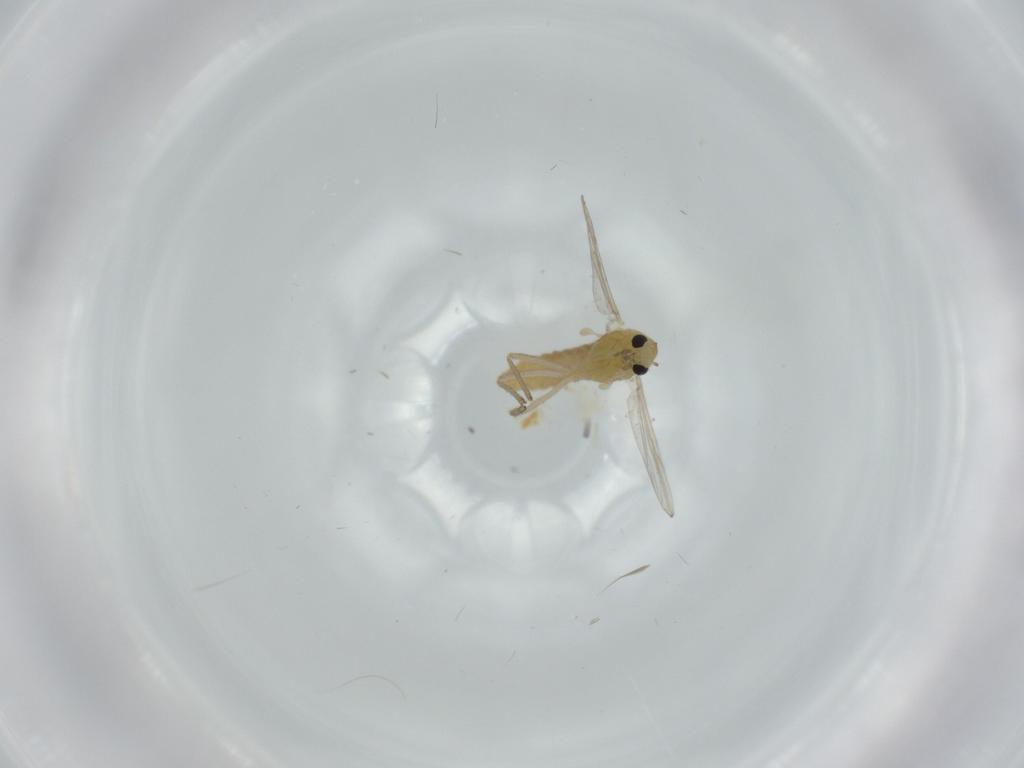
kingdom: Animalia
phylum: Arthropoda
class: Insecta
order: Diptera
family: Chironomidae
